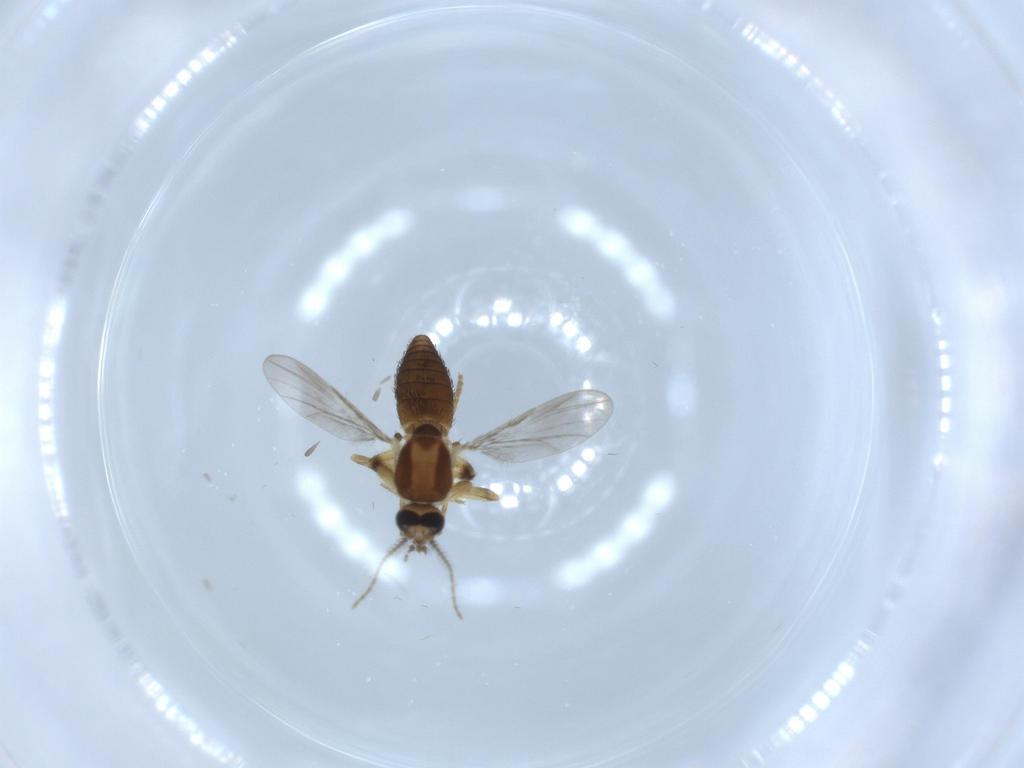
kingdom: Animalia
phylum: Arthropoda
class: Insecta
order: Diptera
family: Ceratopogonidae
